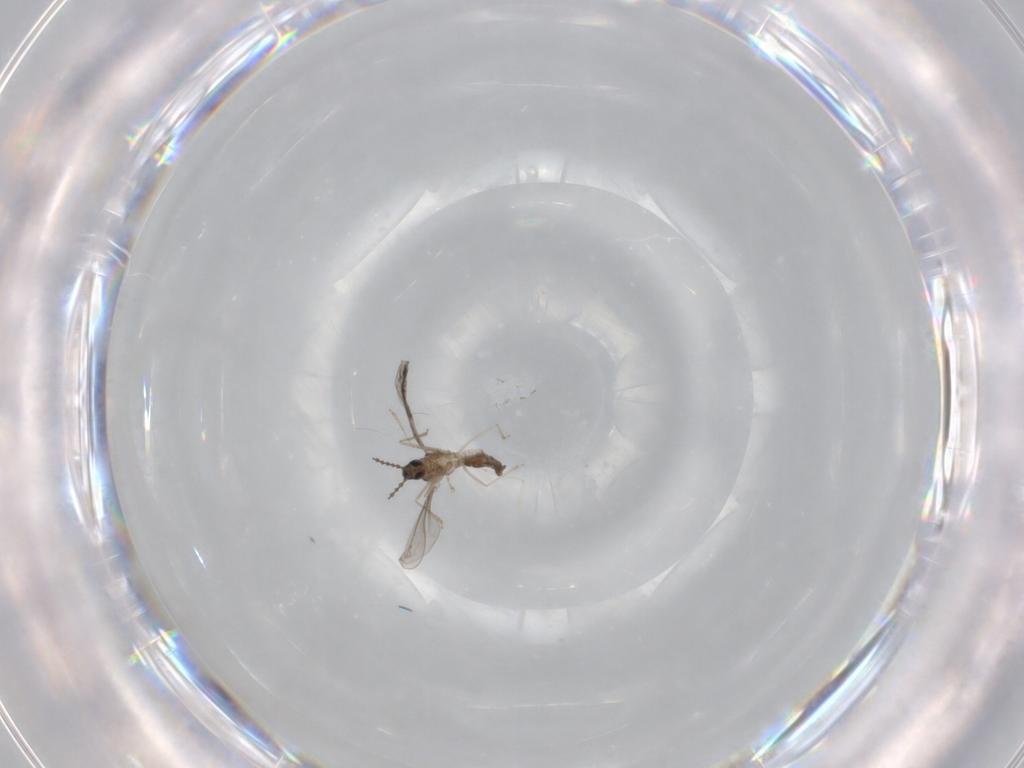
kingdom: Animalia
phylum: Arthropoda
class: Insecta
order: Diptera
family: Cecidomyiidae
